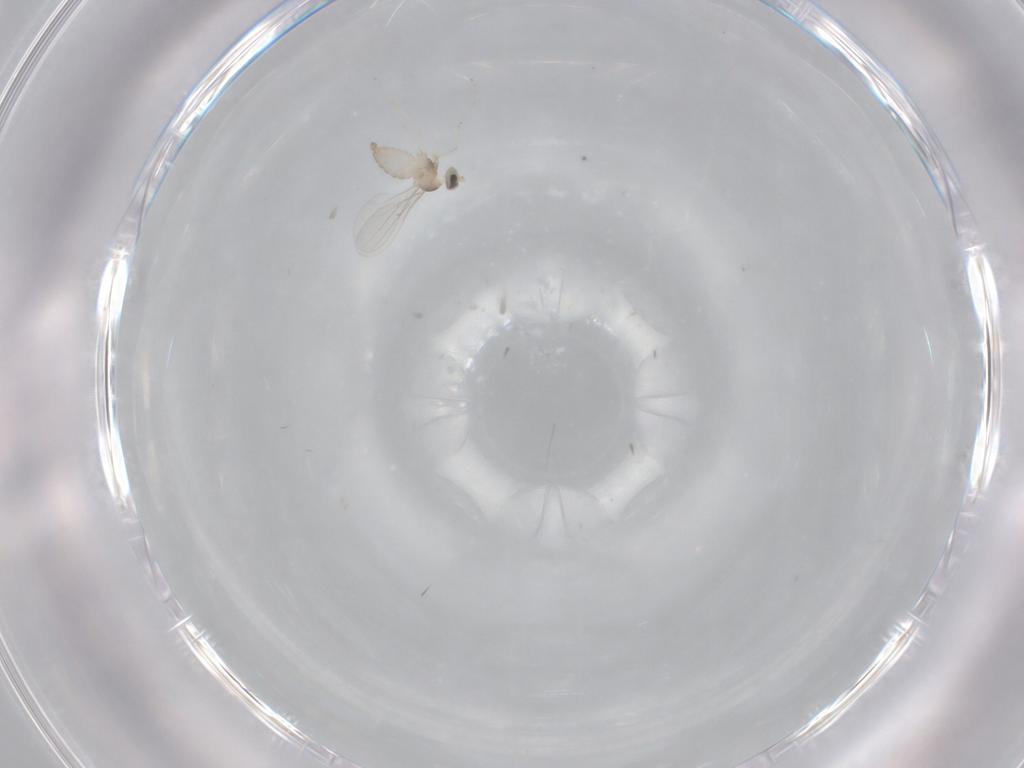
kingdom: Animalia
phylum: Arthropoda
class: Insecta
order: Diptera
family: Cecidomyiidae
